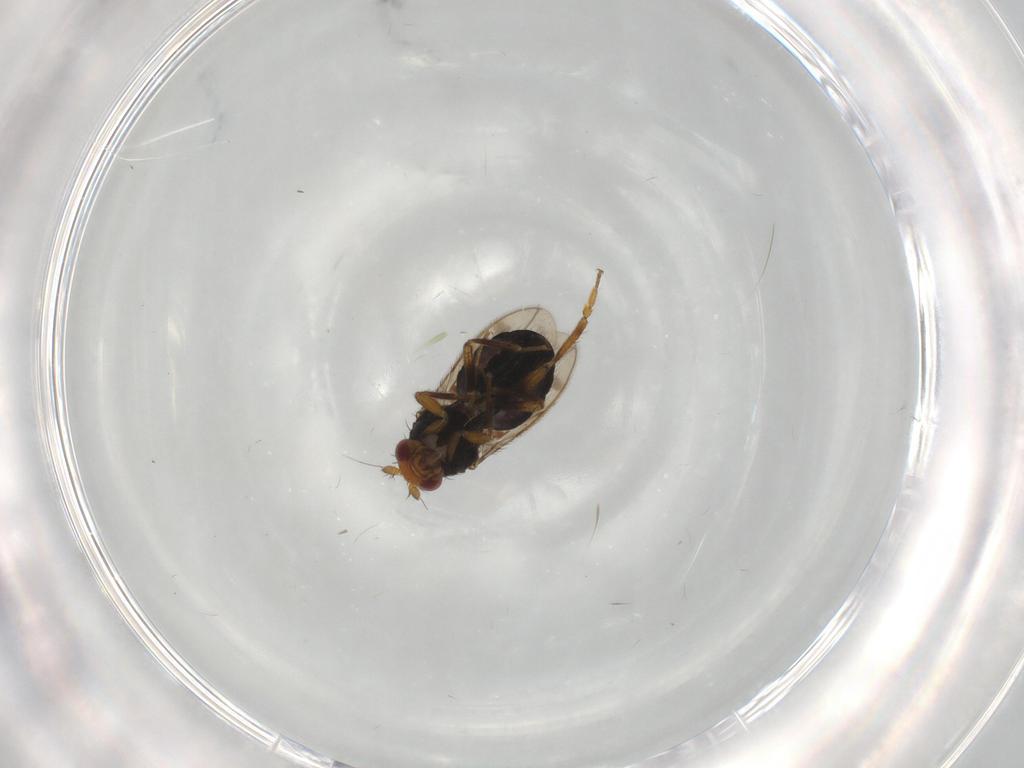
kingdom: Animalia
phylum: Arthropoda
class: Insecta
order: Diptera
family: Sphaeroceridae
